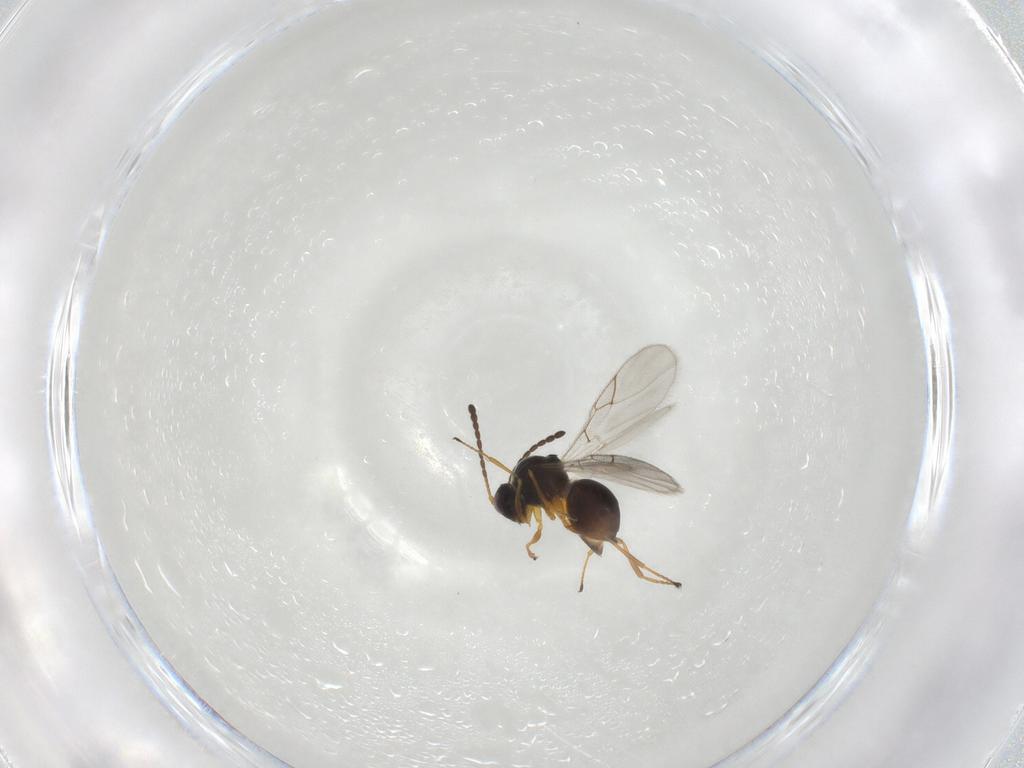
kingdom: Animalia
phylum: Arthropoda
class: Insecta
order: Hymenoptera
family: Figitidae
